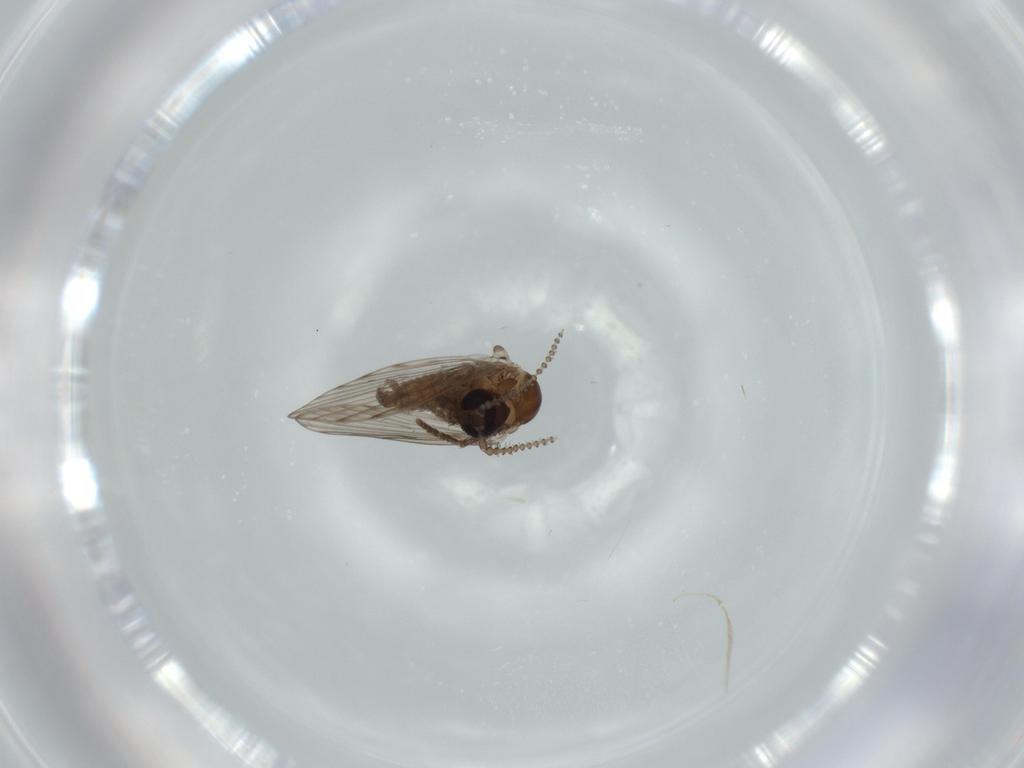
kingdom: Animalia
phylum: Arthropoda
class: Insecta
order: Diptera
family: Psychodidae
